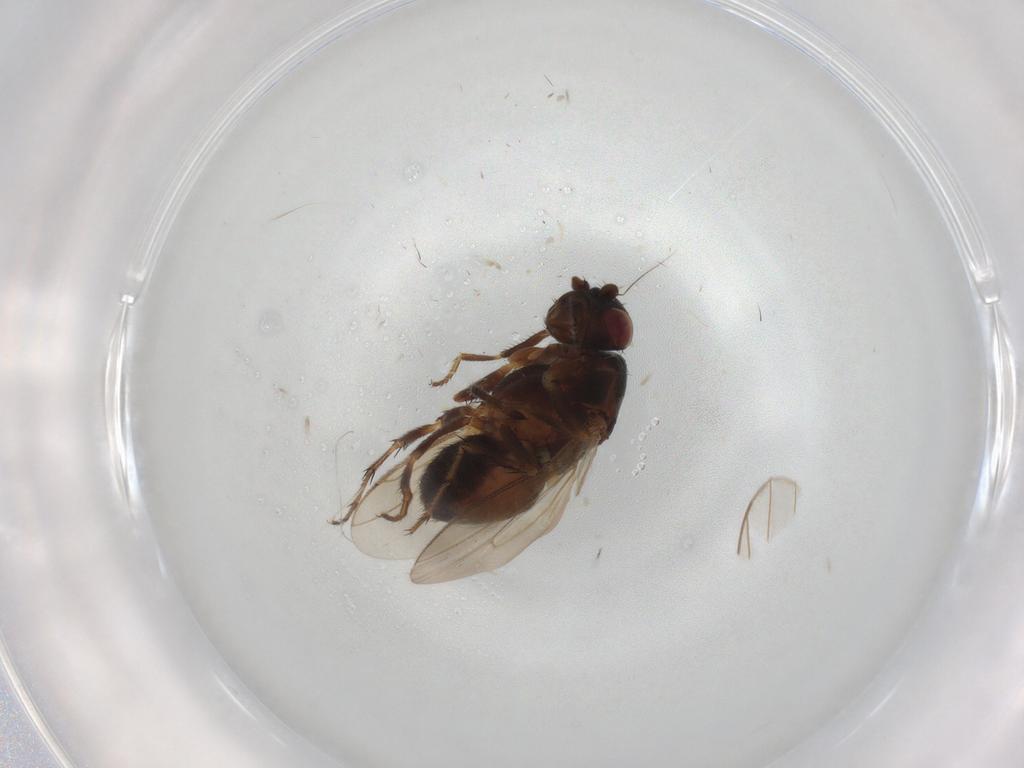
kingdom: Animalia
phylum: Arthropoda
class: Insecta
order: Diptera
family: Sphaeroceridae
